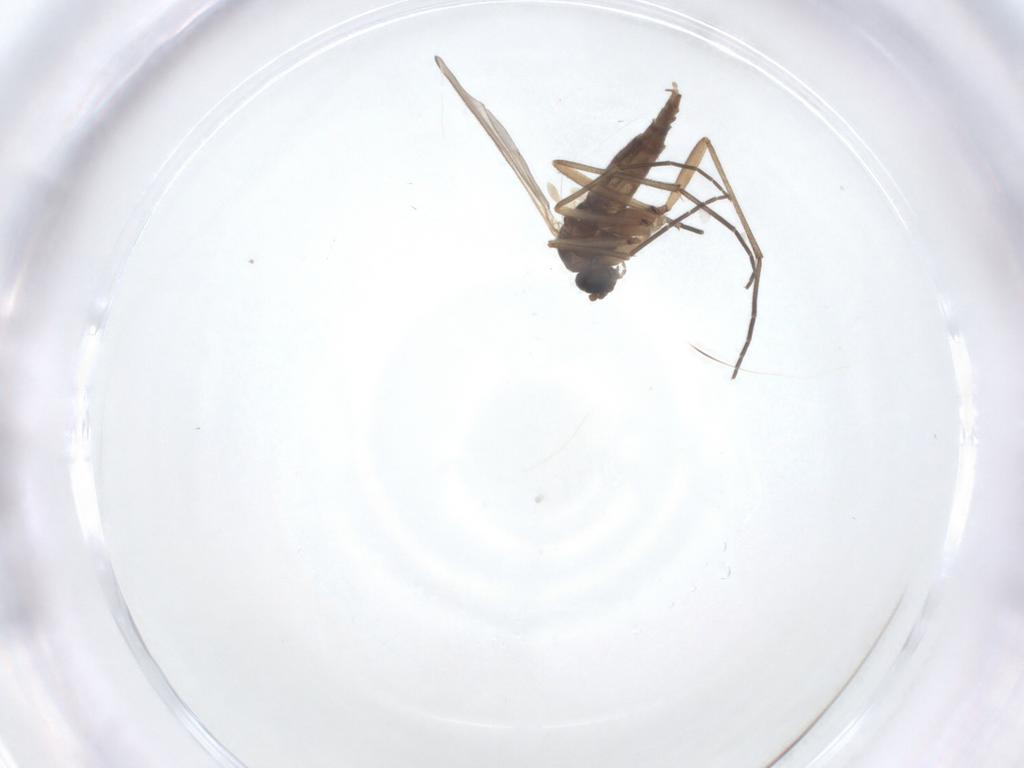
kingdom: Animalia
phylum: Arthropoda
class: Insecta
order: Diptera
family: Sciaridae
